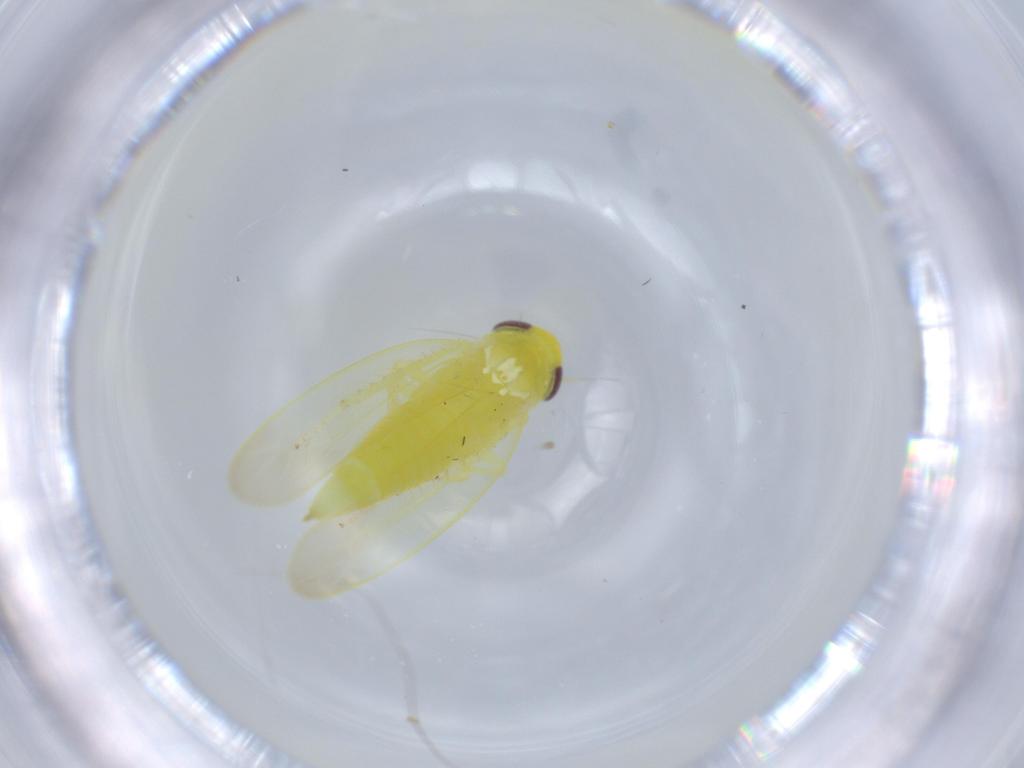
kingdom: Animalia
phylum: Arthropoda
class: Insecta
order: Hemiptera
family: Cicadellidae
